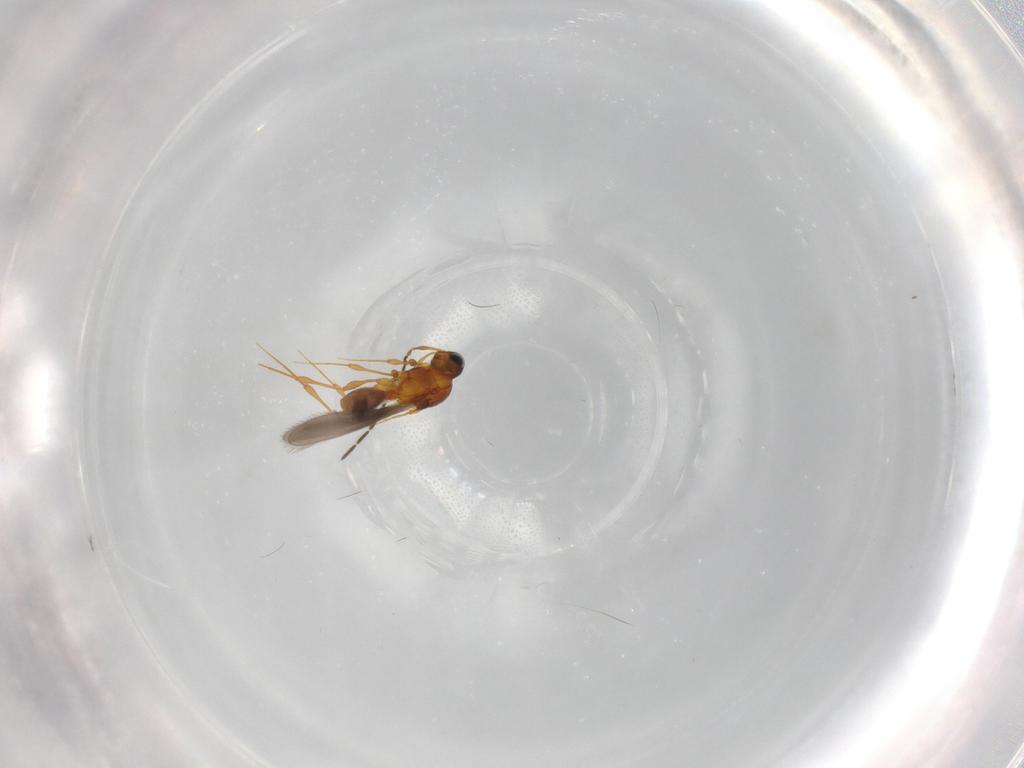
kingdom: Animalia
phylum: Arthropoda
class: Insecta
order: Hymenoptera
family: Platygastridae
